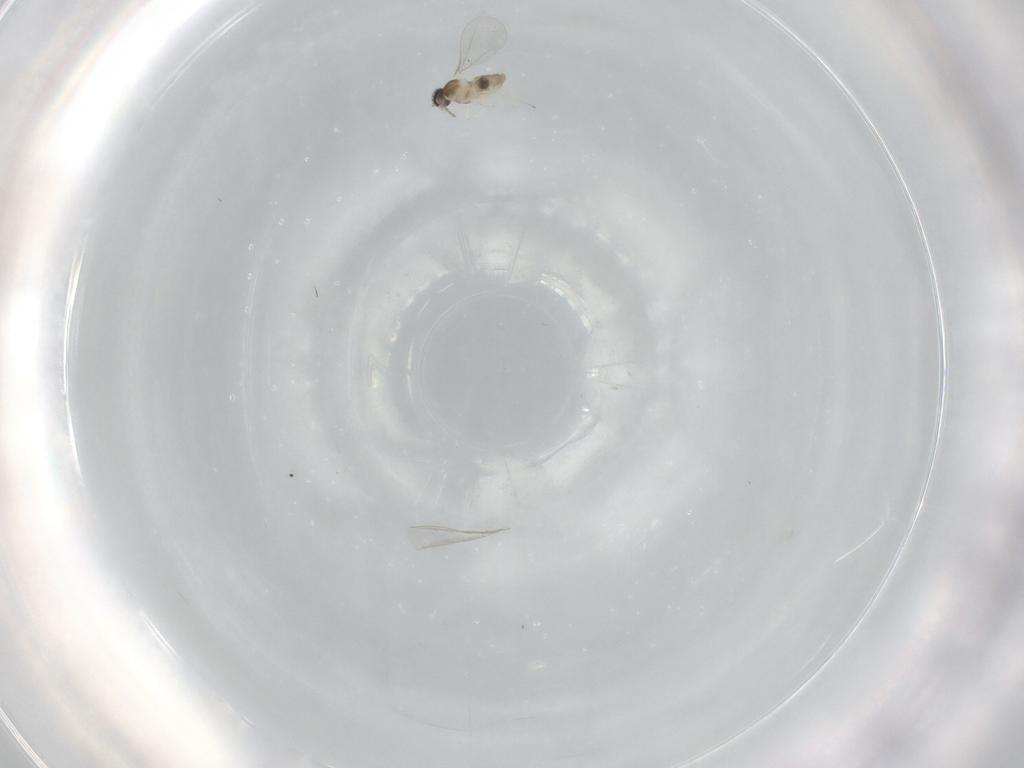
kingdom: Animalia
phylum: Arthropoda
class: Insecta
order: Diptera
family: Cecidomyiidae
